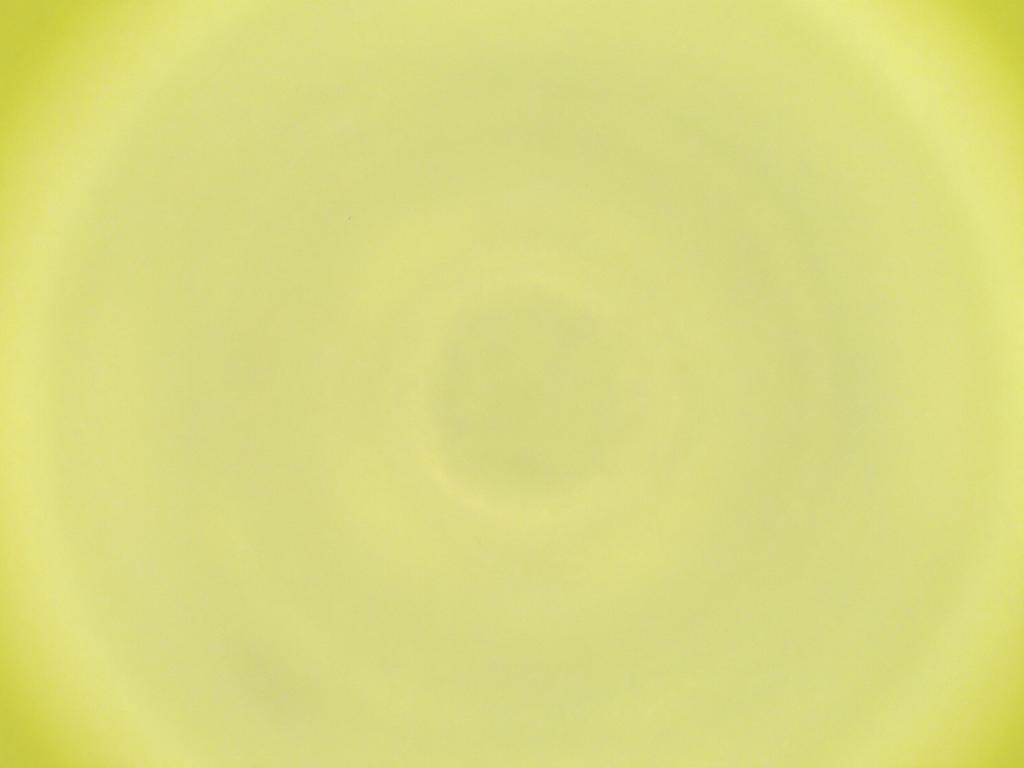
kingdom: Animalia
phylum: Arthropoda
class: Insecta
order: Diptera
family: Cecidomyiidae
